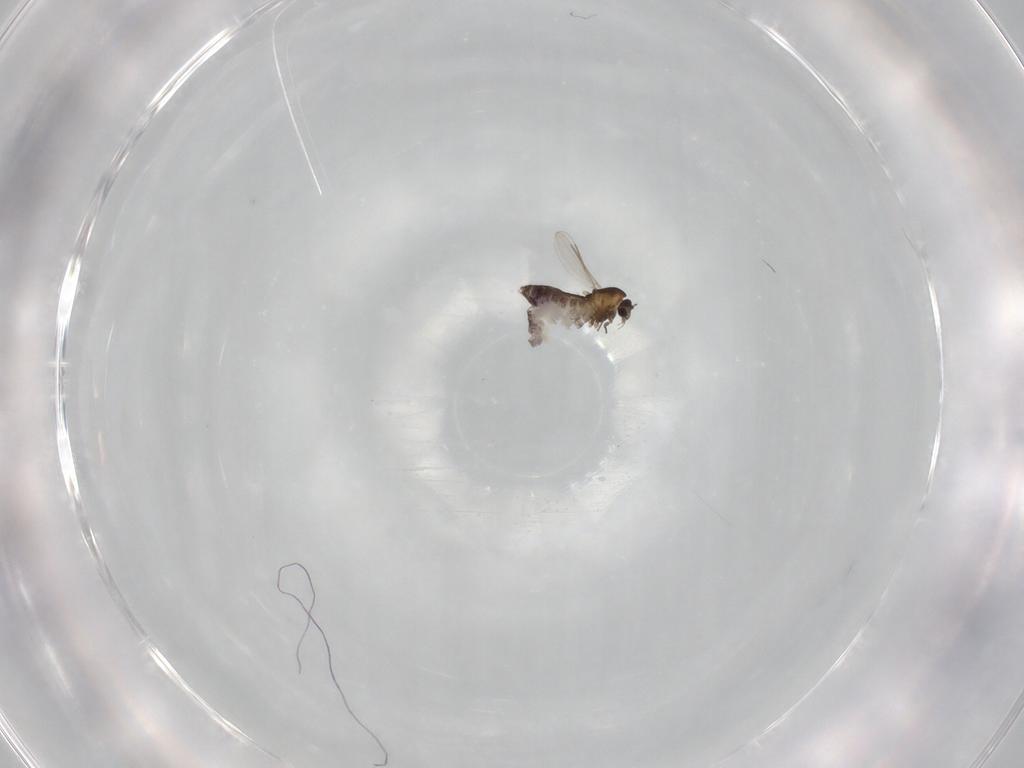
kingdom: Animalia
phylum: Arthropoda
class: Insecta
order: Diptera
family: Chironomidae
